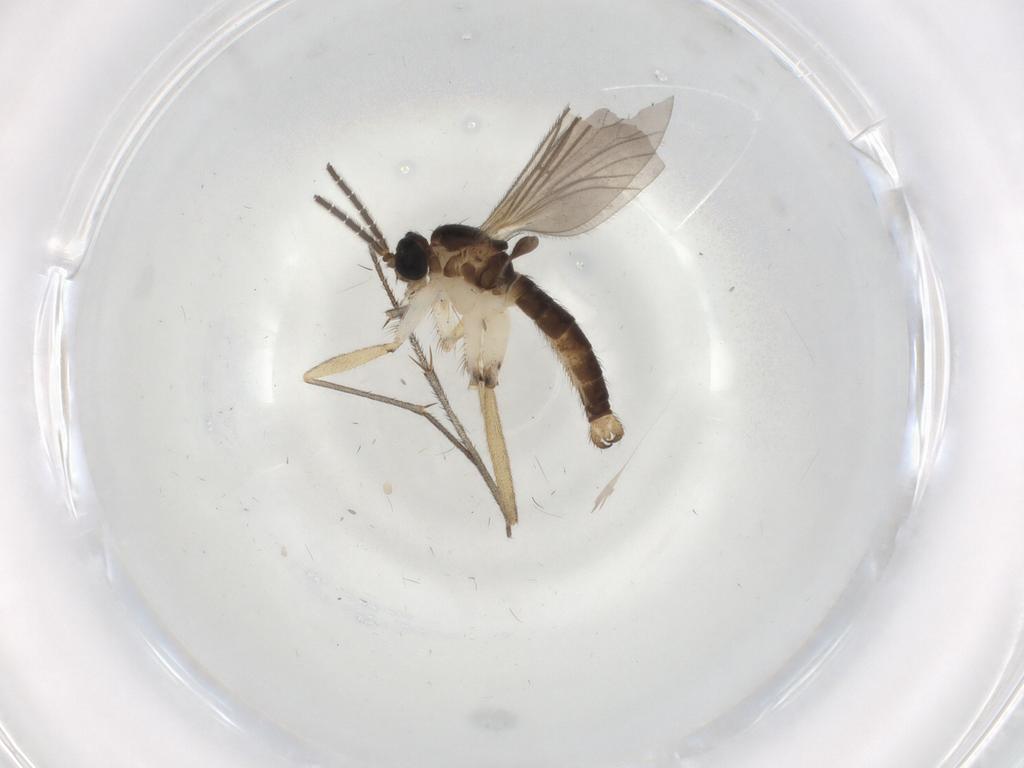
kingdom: Animalia
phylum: Arthropoda
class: Insecta
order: Diptera
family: Sciaridae
